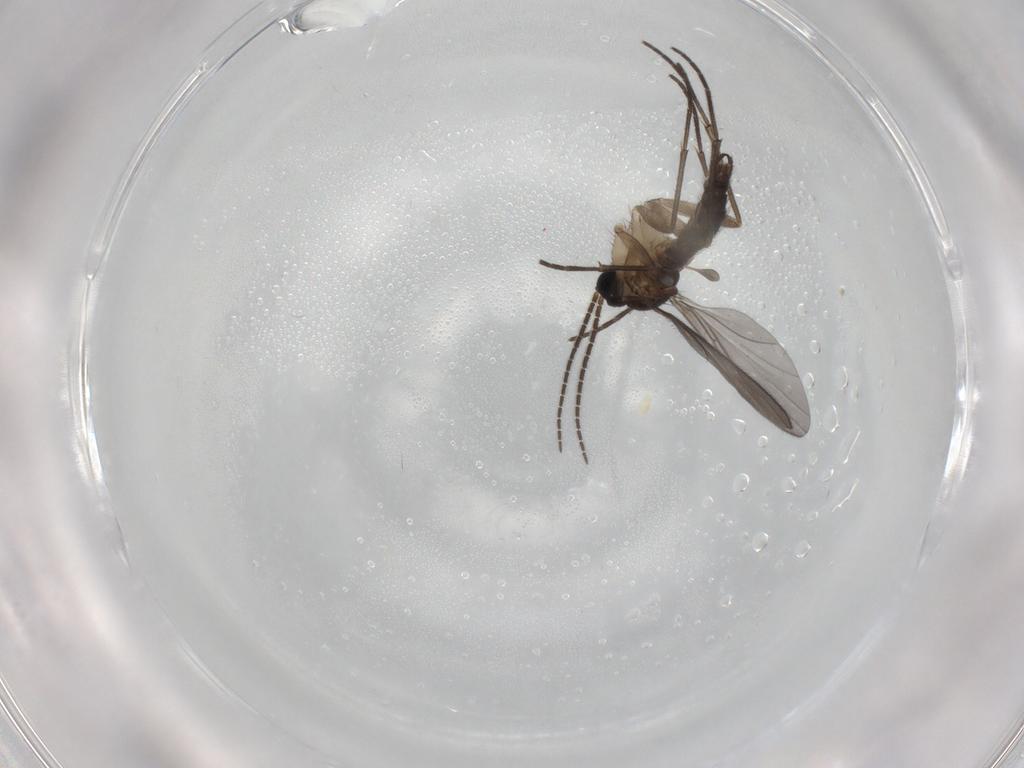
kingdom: Animalia
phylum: Arthropoda
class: Insecta
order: Diptera
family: Sciaridae
